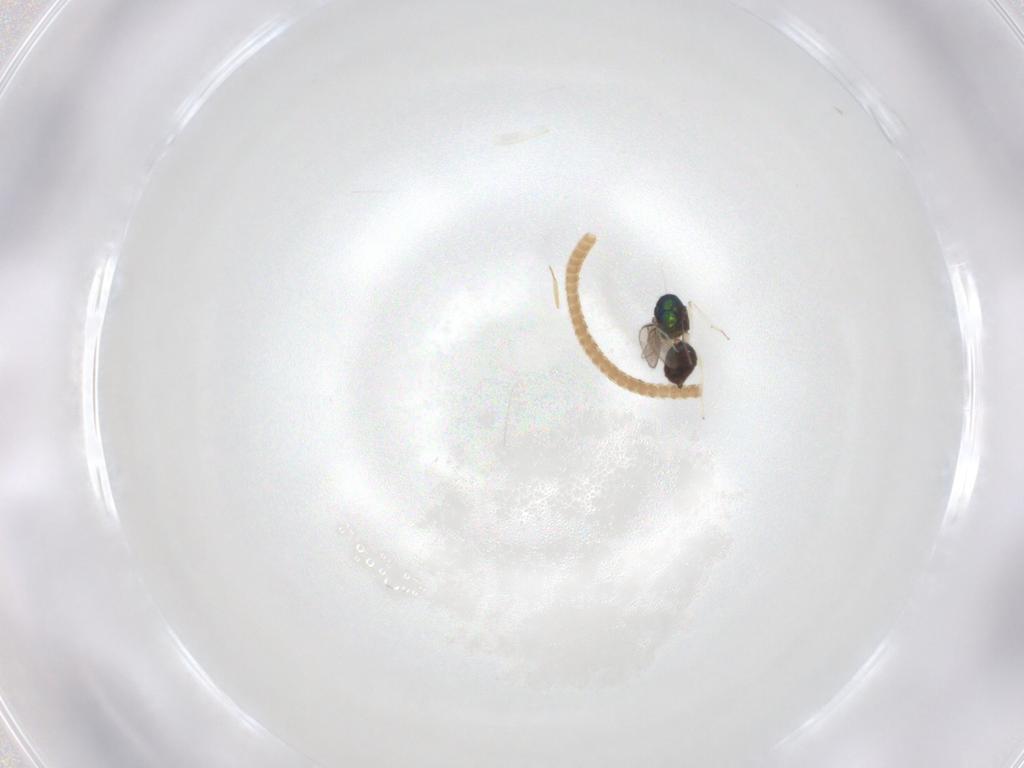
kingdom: Animalia
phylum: Arthropoda
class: Insecta
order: Hymenoptera
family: Eulophidae
